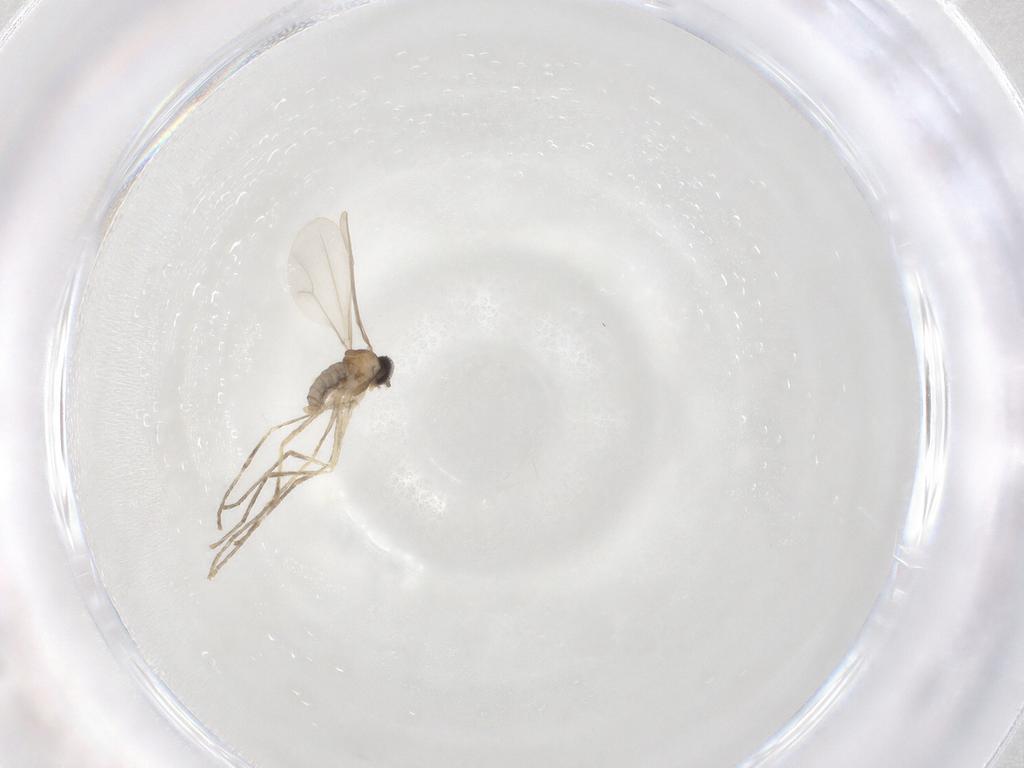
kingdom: Animalia
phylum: Arthropoda
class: Insecta
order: Diptera
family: Cecidomyiidae
